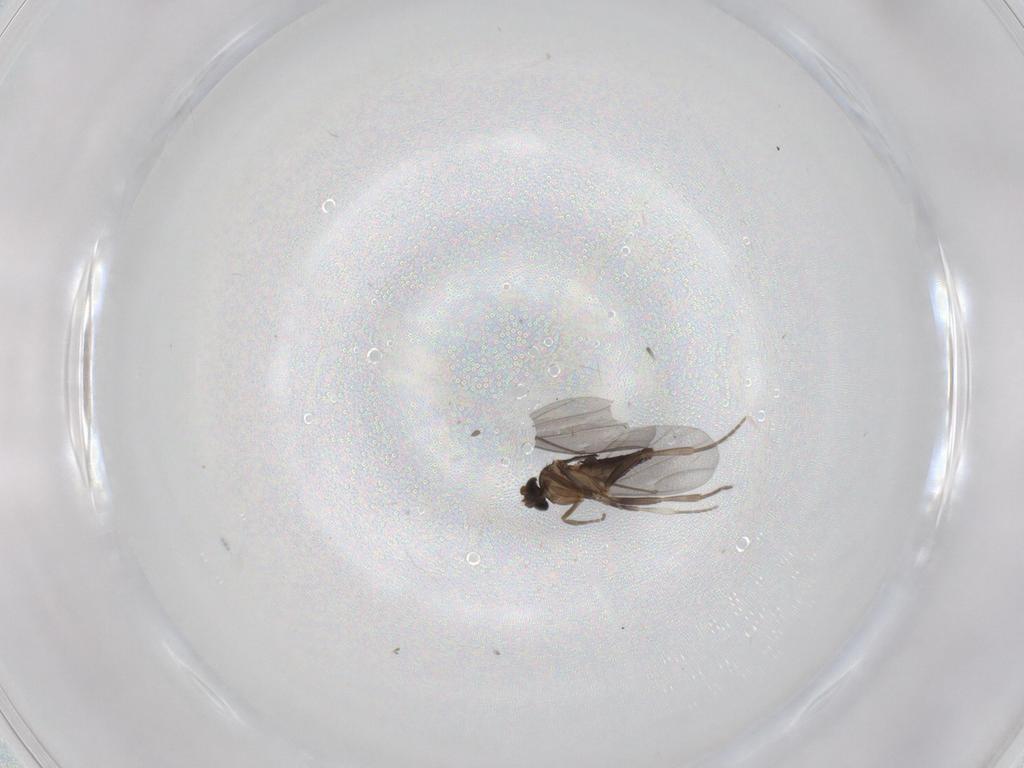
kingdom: Animalia
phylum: Arthropoda
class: Insecta
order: Diptera
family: Phoridae
